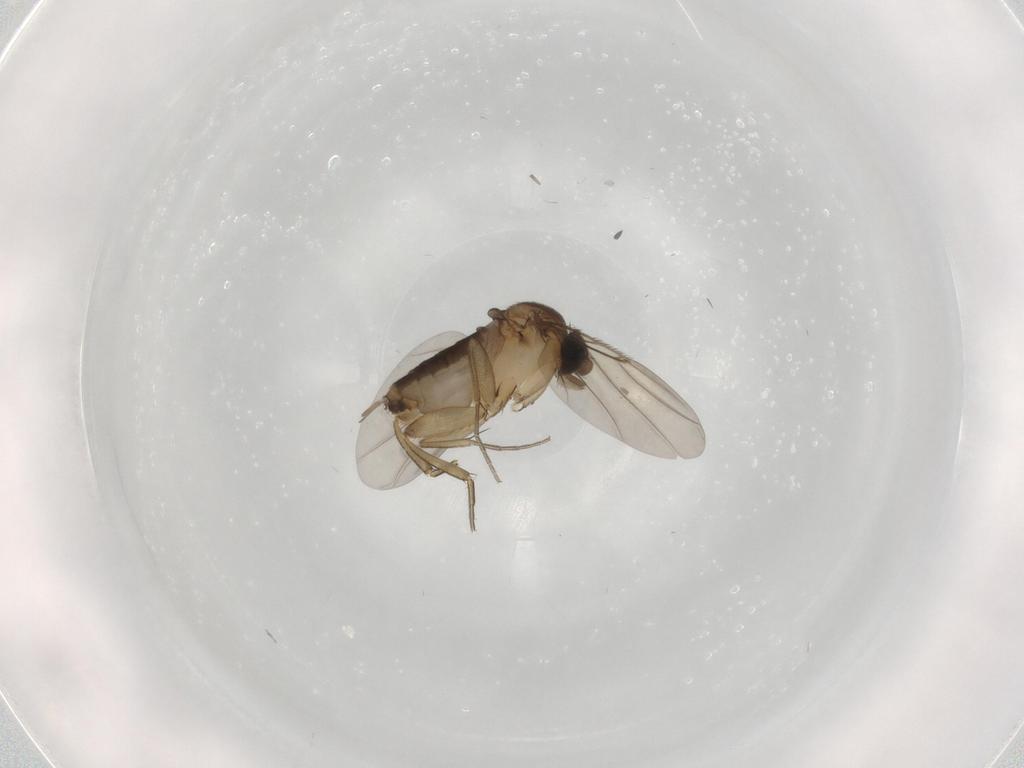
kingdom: Animalia
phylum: Arthropoda
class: Insecta
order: Diptera
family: Phoridae
